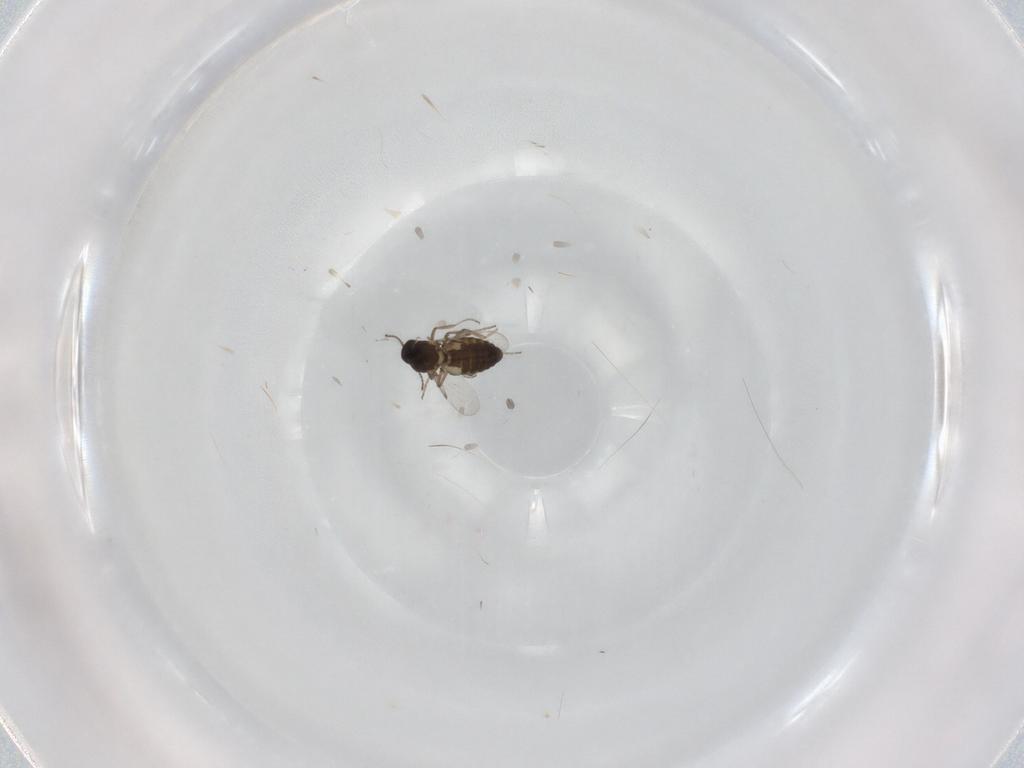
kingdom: Animalia
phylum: Arthropoda
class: Insecta
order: Diptera
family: Ceratopogonidae
